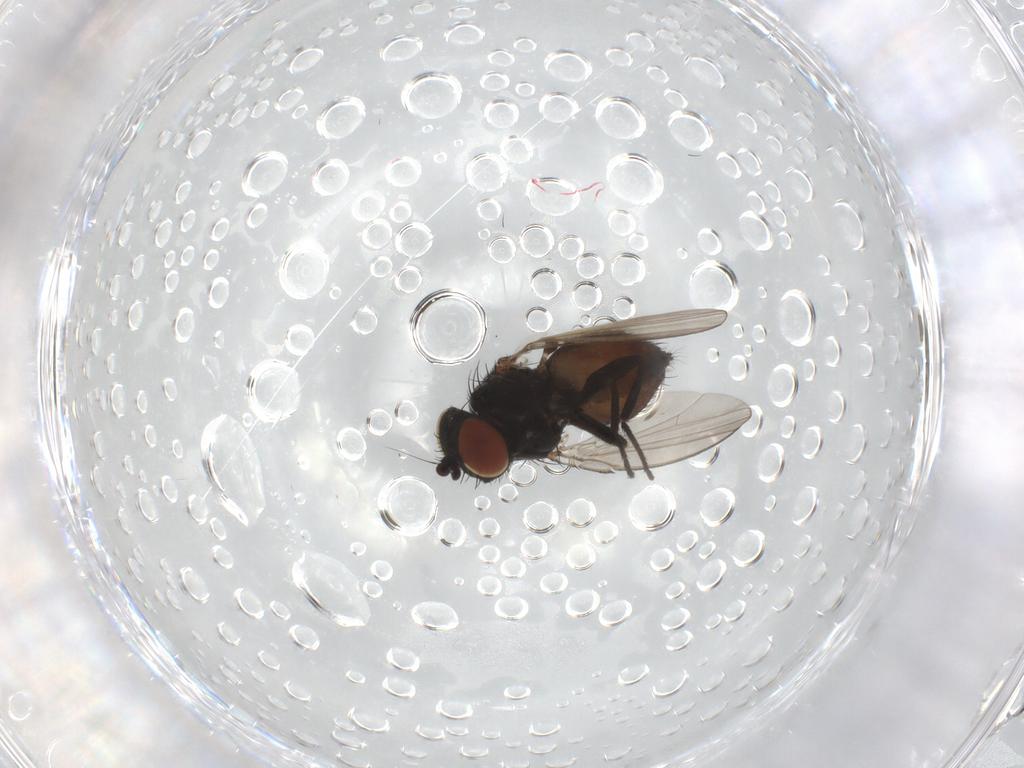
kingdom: Animalia
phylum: Arthropoda
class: Insecta
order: Diptera
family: Milichiidae
